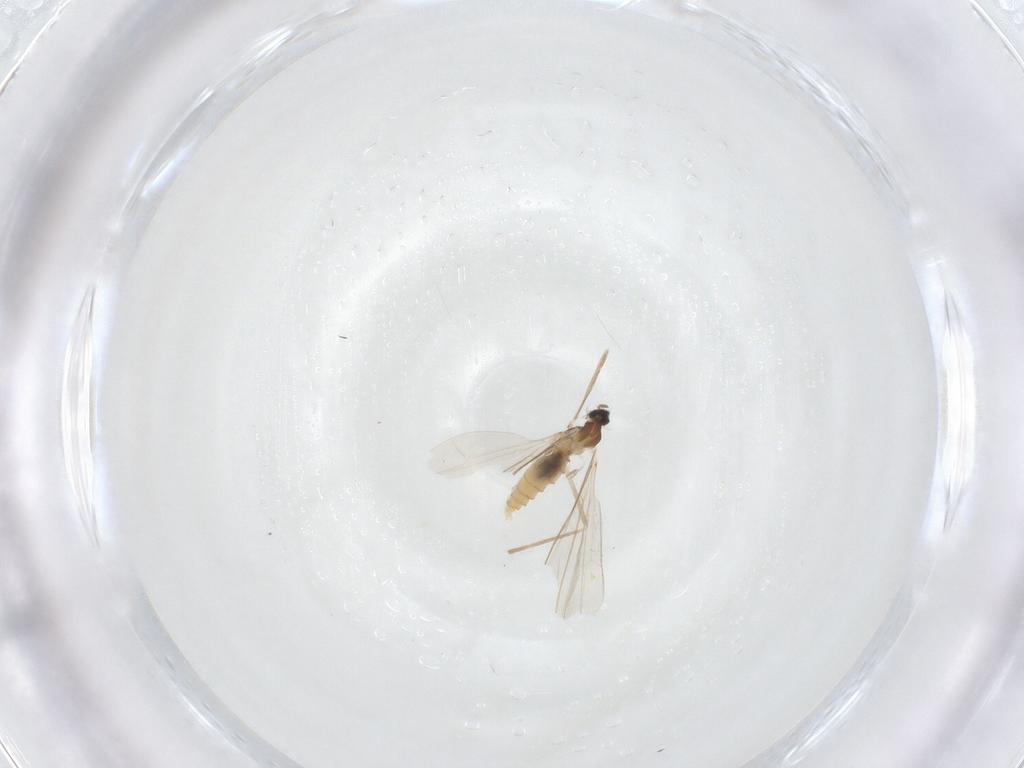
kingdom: Animalia
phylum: Arthropoda
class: Insecta
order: Diptera
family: Cecidomyiidae
